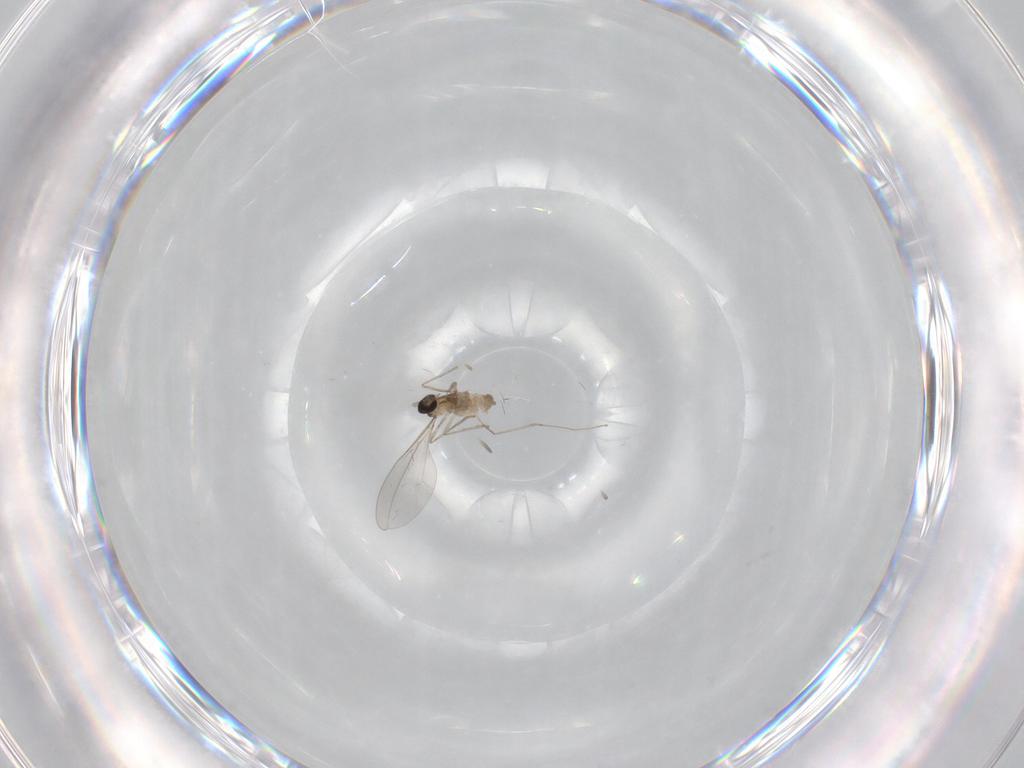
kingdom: Animalia
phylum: Arthropoda
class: Insecta
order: Diptera
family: Cecidomyiidae
